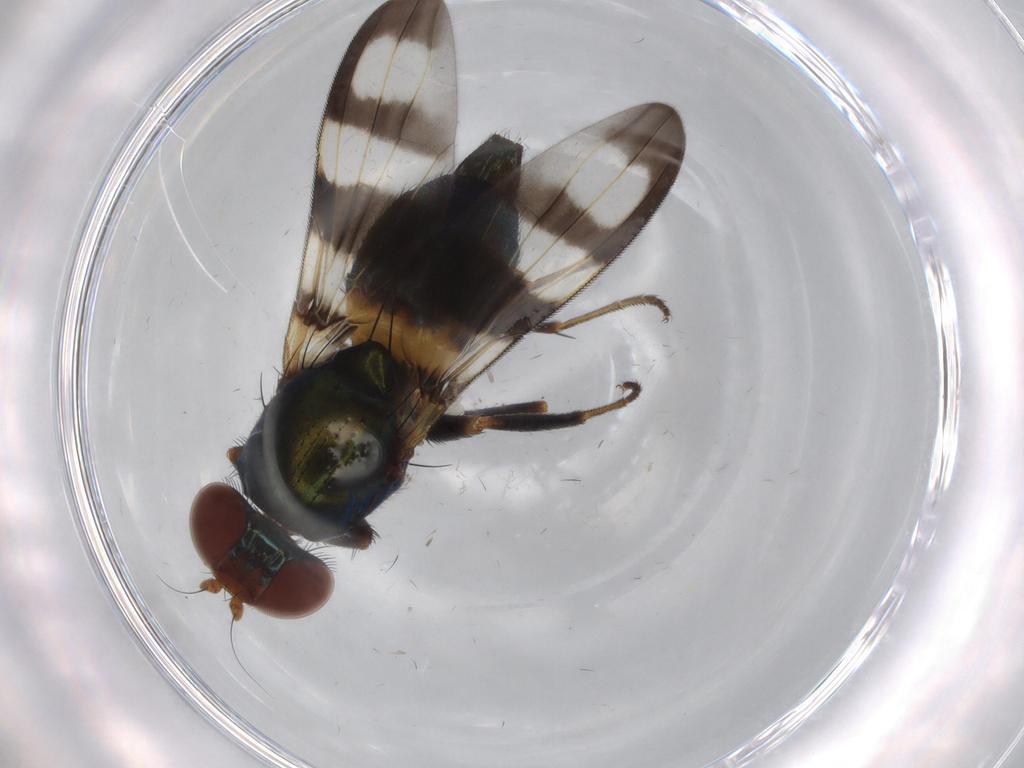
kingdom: Animalia
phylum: Arthropoda
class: Insecta
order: Diptera
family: Ulidiidae
